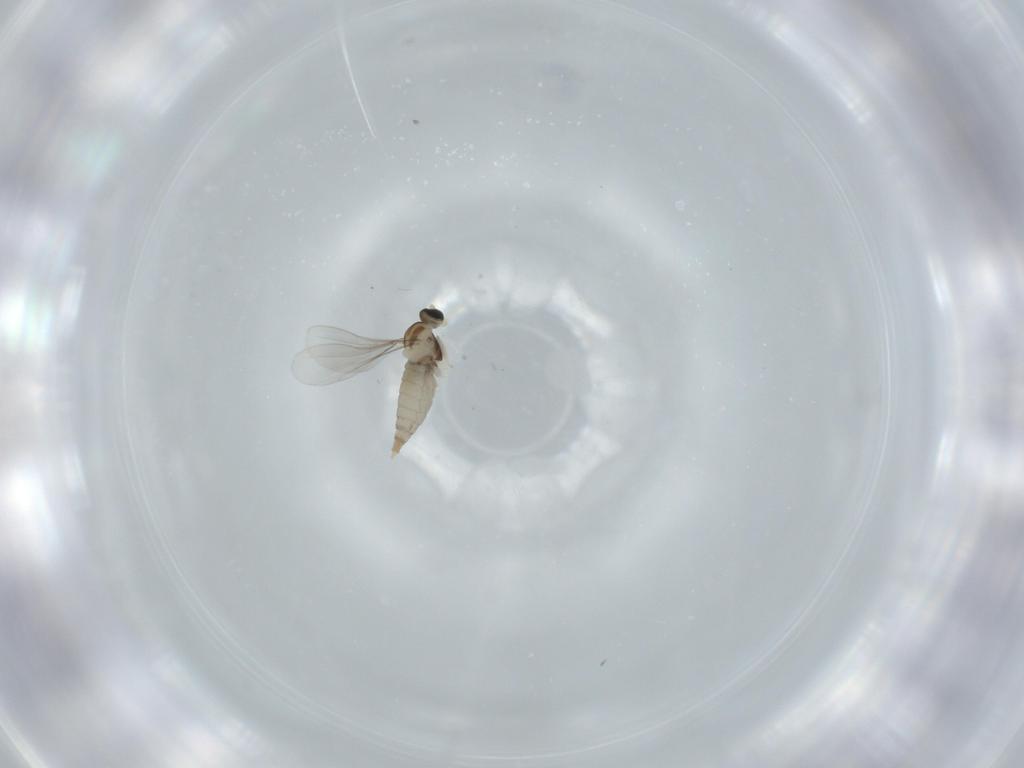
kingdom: Animalia
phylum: Arthropoda
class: Insecta
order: Diptera
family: Cecidomyiidae
